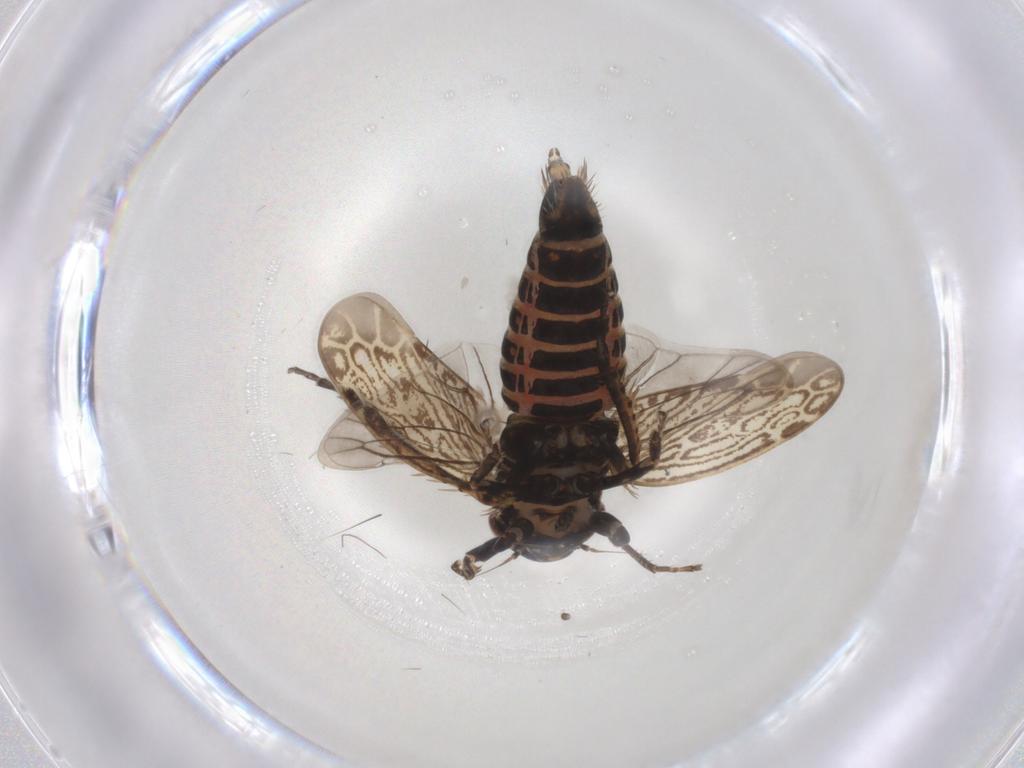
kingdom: Animalia
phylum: Arthropoda
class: Insecta
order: Hemiptera
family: Cicadellidae
